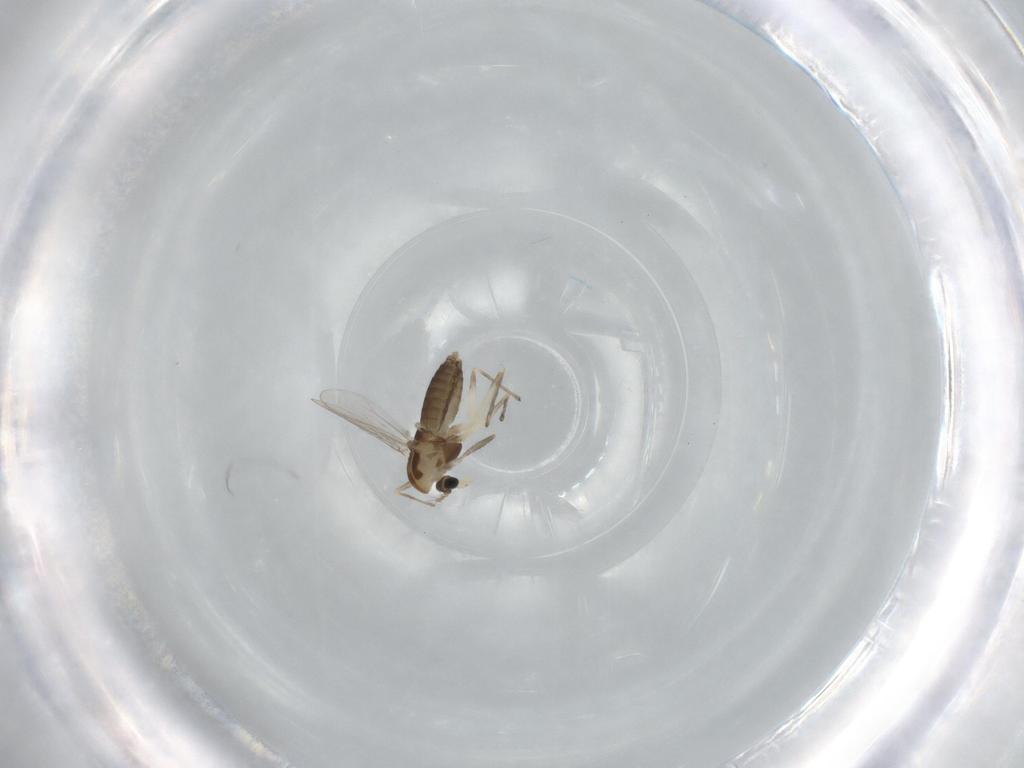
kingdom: Animalia
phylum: Arthropoda
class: Insecta
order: Diptera
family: Chironomidae
